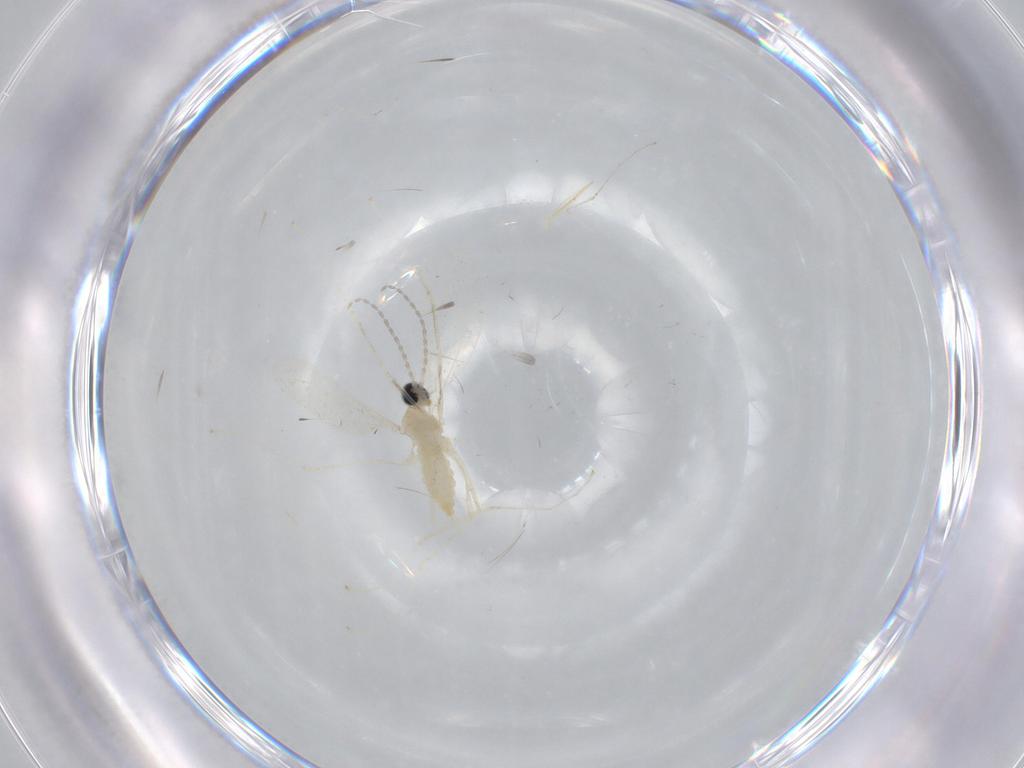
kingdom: Animalia
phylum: Arthropoda
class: Insecta
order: Diptera
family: Cecidomyiidae
